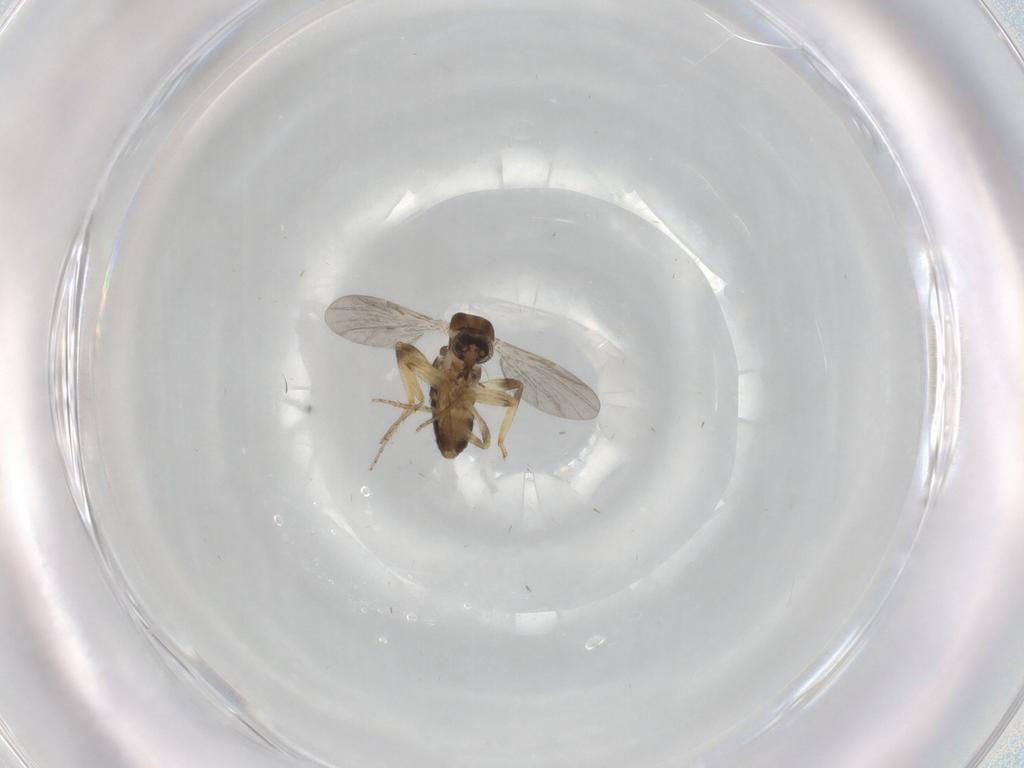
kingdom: Animalia
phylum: Arthropoda
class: Insecta
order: Diptera
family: Ceratopogonidae
